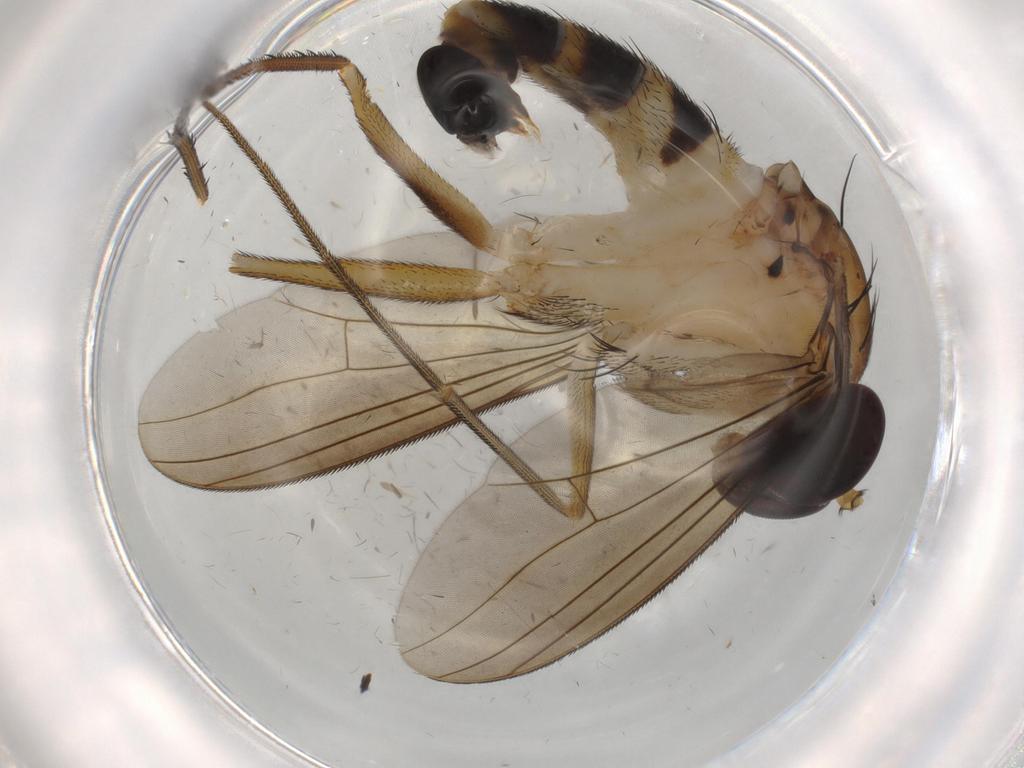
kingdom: Animalia
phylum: Arthropoda
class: Insecta
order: Diptera
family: Dolichopodidae
